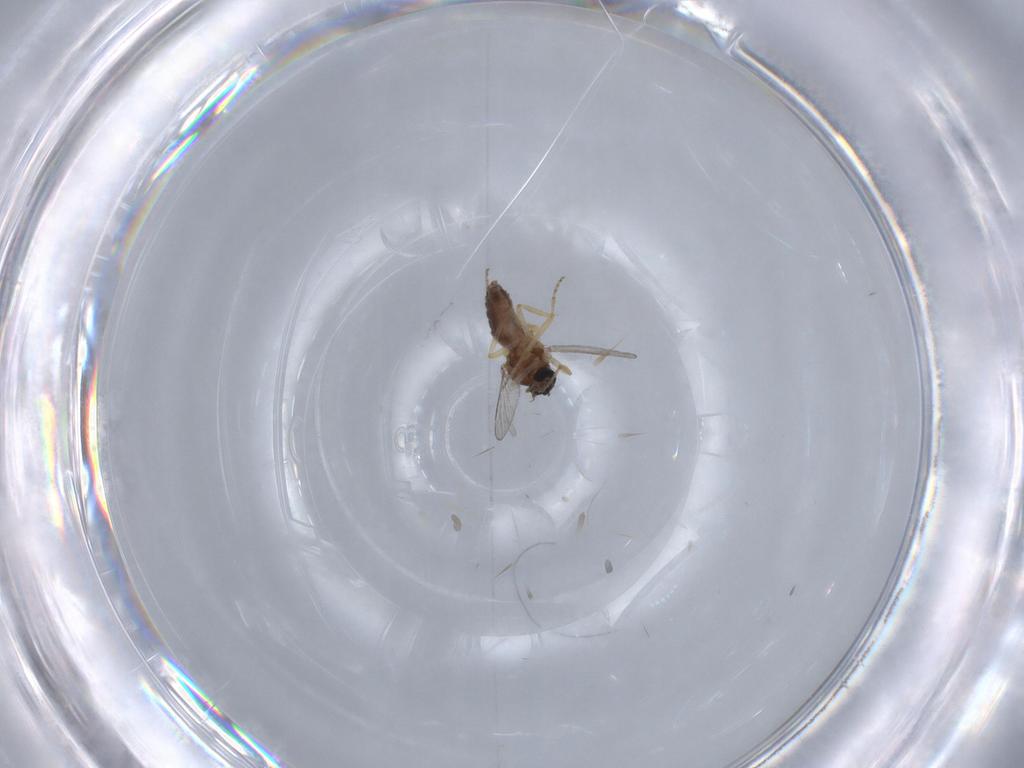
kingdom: Animalia
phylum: Arthropoda
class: Insecta
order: Diptera
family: Ceratopogonidae
